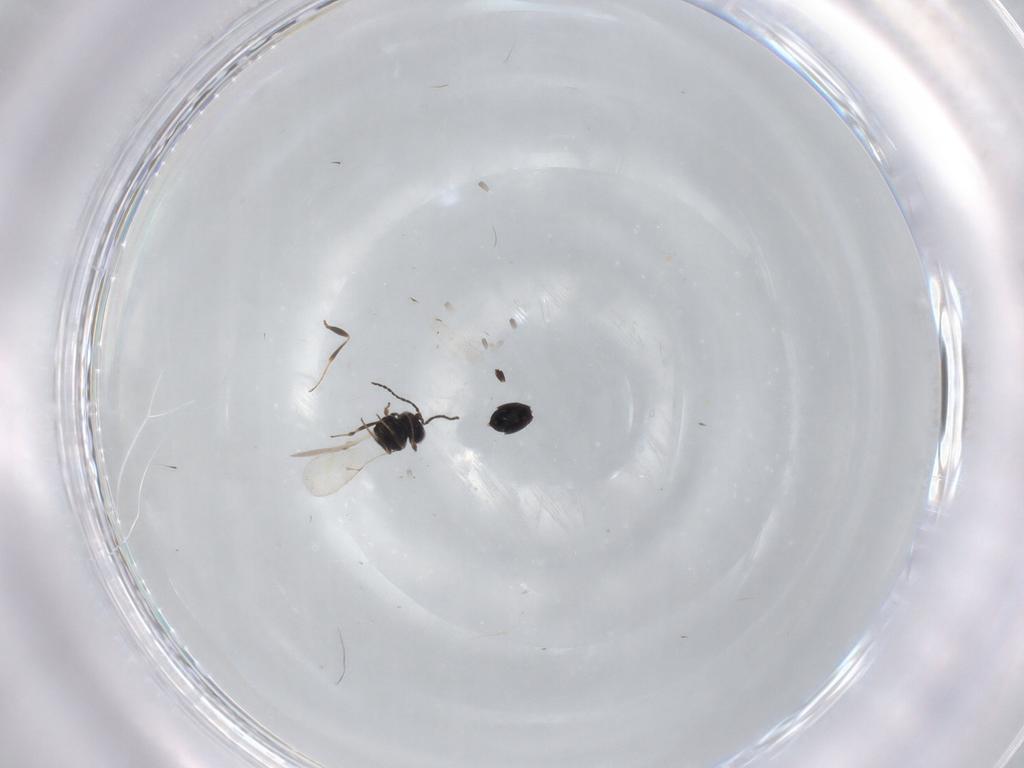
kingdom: Animalia
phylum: Arthropoda
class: Insecta
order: Hymenoptera
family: Scelionidae
